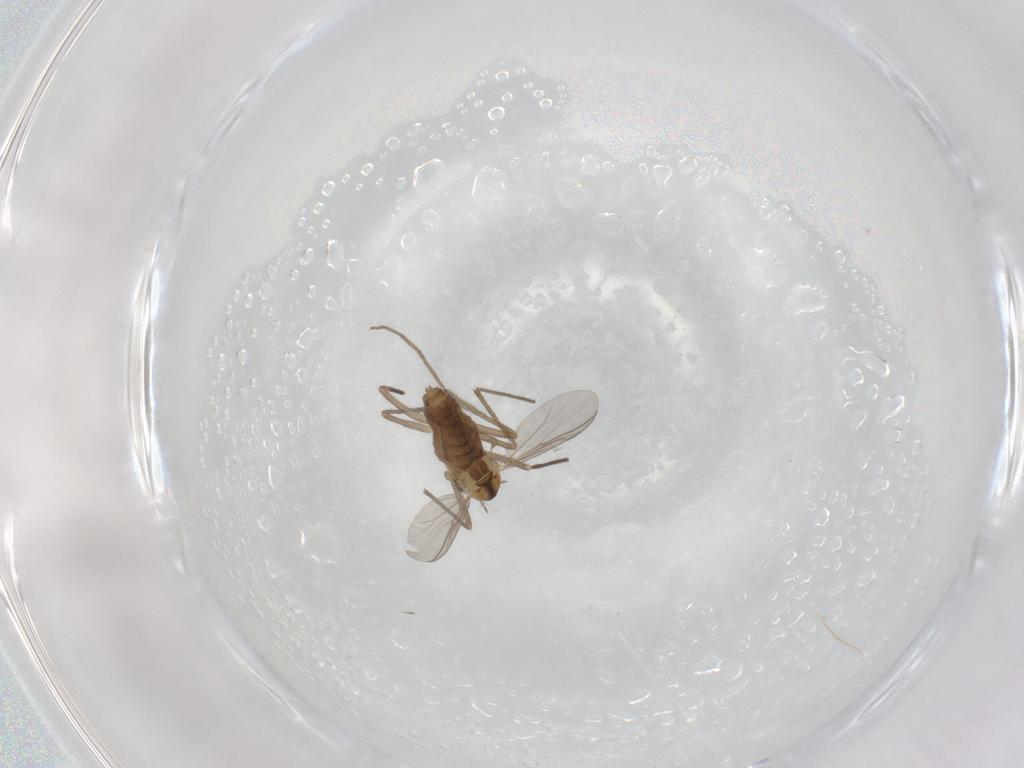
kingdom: Animalia
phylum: Arthropoda
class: Insecta
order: Diptera
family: Chironomidae
